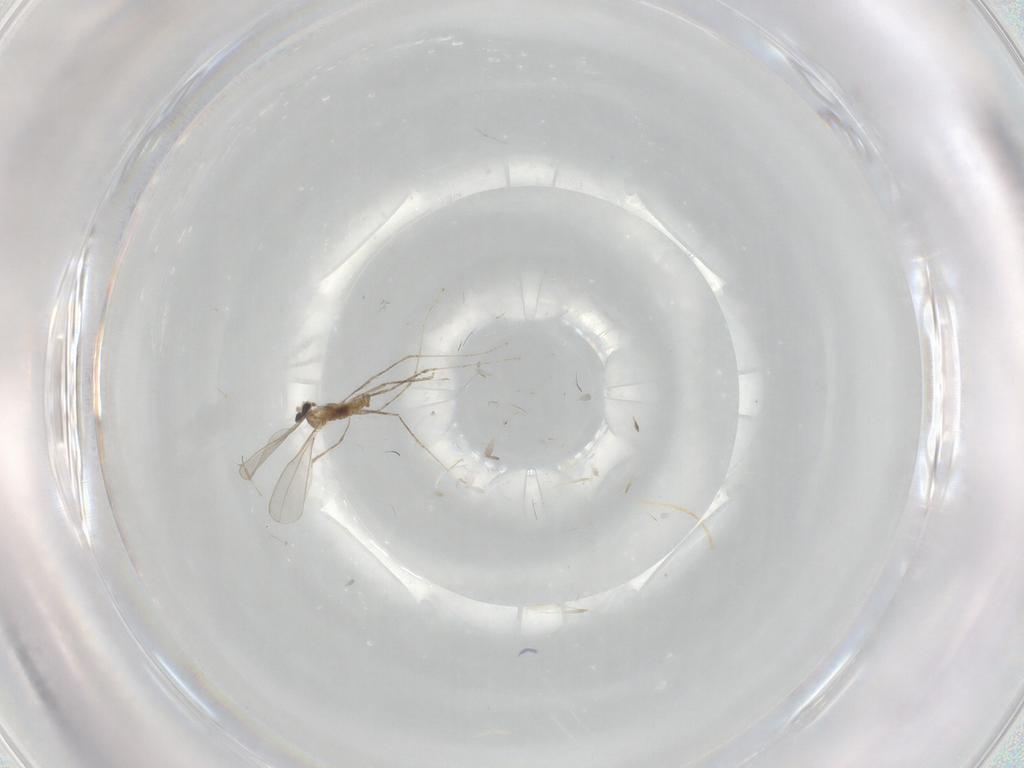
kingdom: Animalia
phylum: Arthropoda
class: Insecta
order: Diptera
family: Cecidomyiidae
